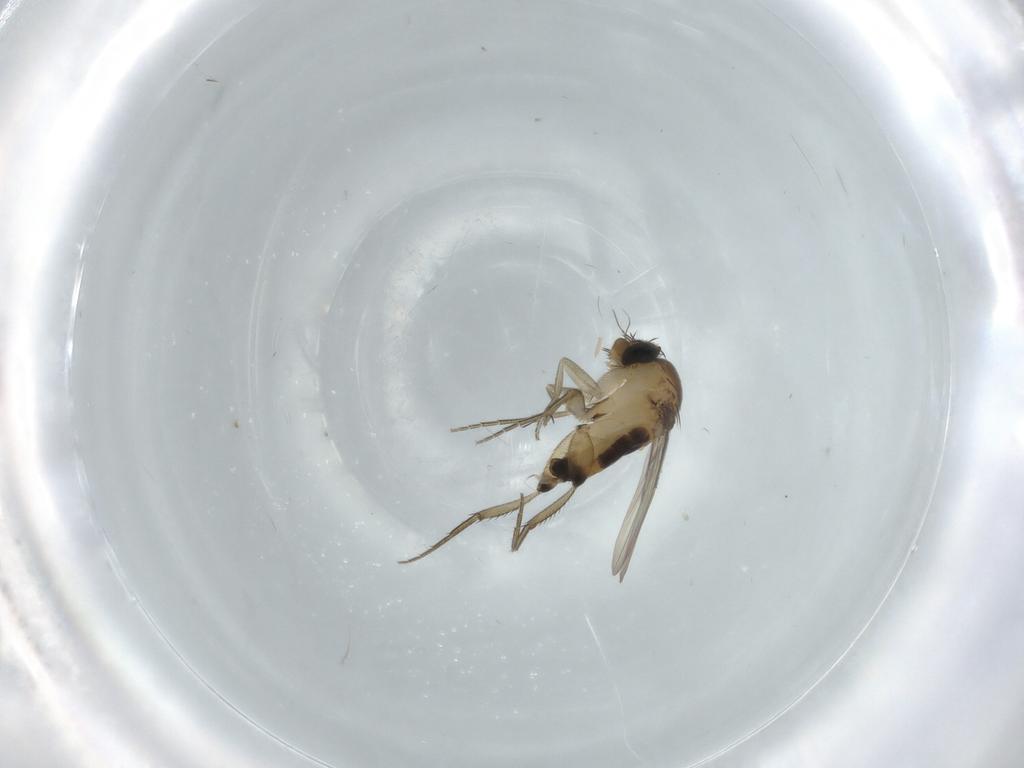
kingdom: Animalia
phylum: Arthropoda
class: Insecta
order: Diptera
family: Phoridae
